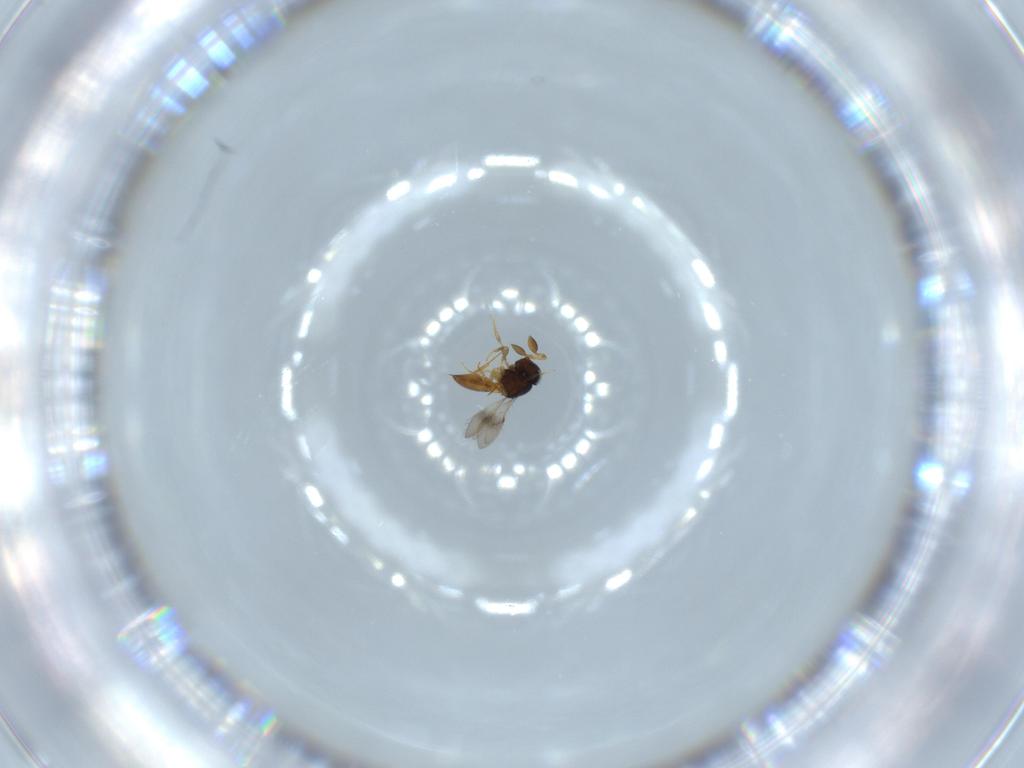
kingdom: Animalia
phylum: Arthropoda
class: Insecta
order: Hymenoptera
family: Scelionidae
